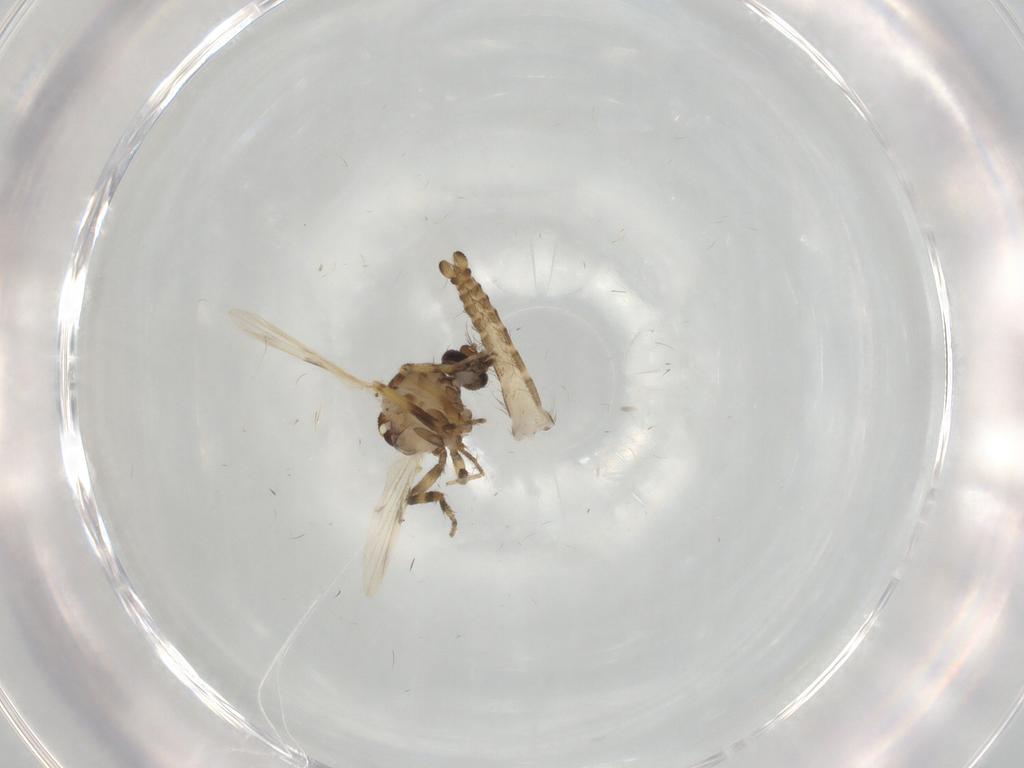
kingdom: Animalia
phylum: Arthropoda
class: Insecta
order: Diptera
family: Ceratopogonidae
